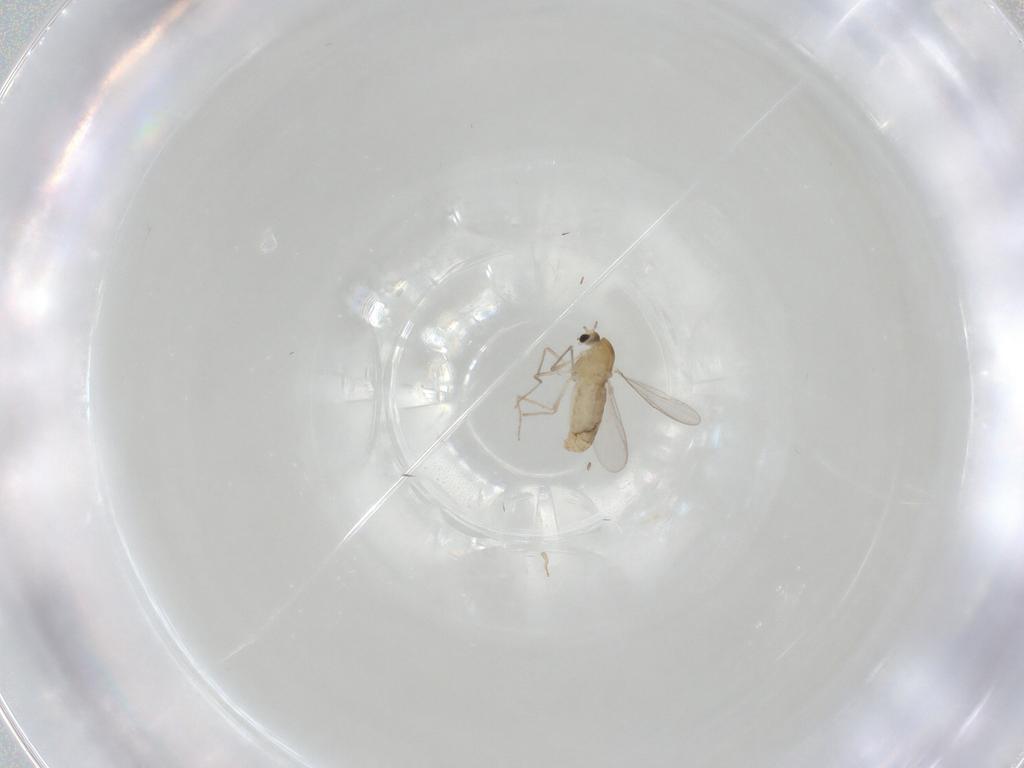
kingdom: Animalia
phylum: Arthropoda
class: Insecta
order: Diptera
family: Chironomidae
